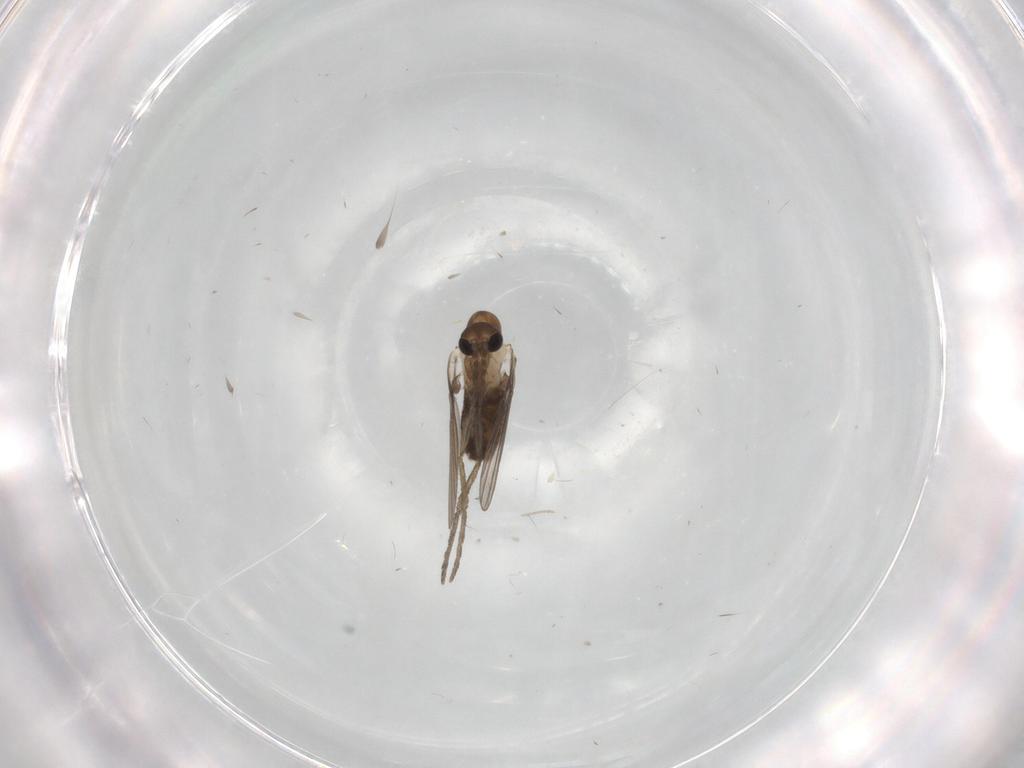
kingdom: Animalia
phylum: Arthropoda
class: Insecta
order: Diptera
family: Psychodidae
